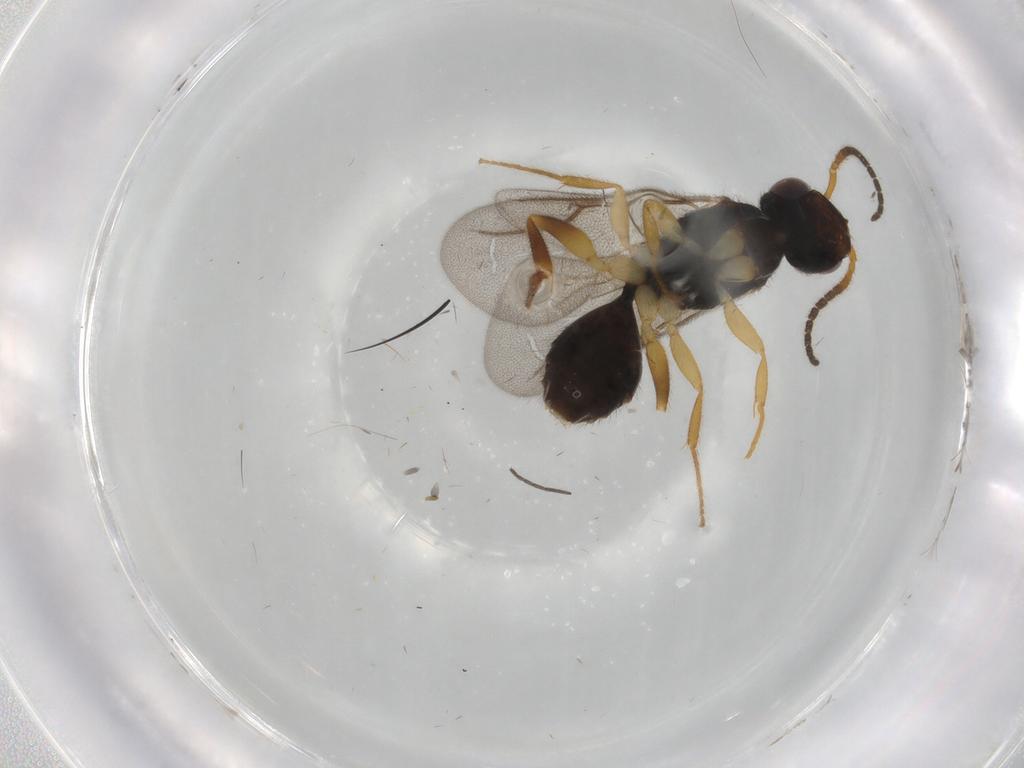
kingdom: Animalia
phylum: Arthropoda
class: Insecta
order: Hymenoptera
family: Bethylidae
